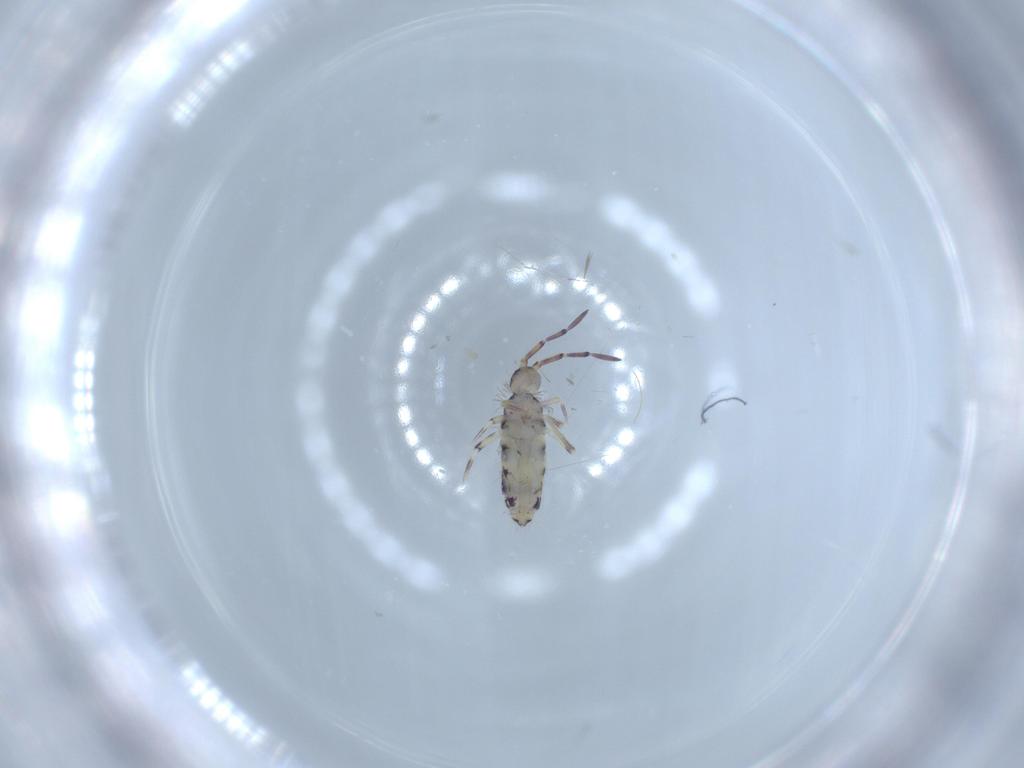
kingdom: Animalia
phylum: Arthropoda
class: Collembola
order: Entomobryomorpha
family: Entomobryidae
